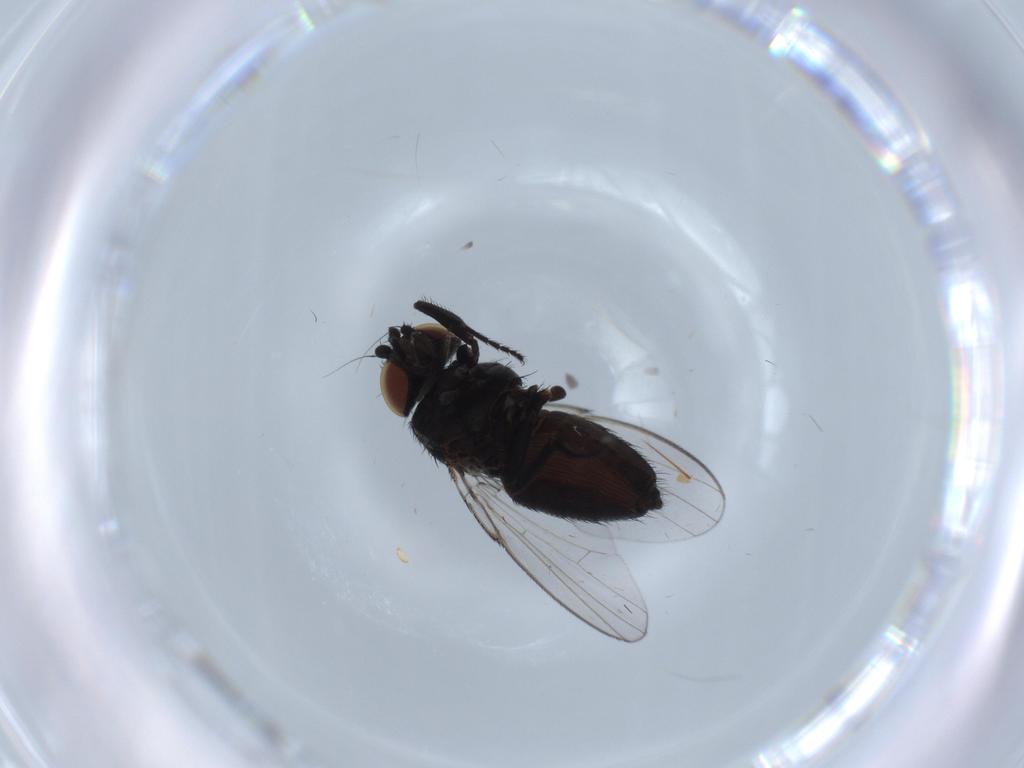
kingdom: Animalia
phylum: Arthropoda
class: Insecta
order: Diptera
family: Milichiidae
